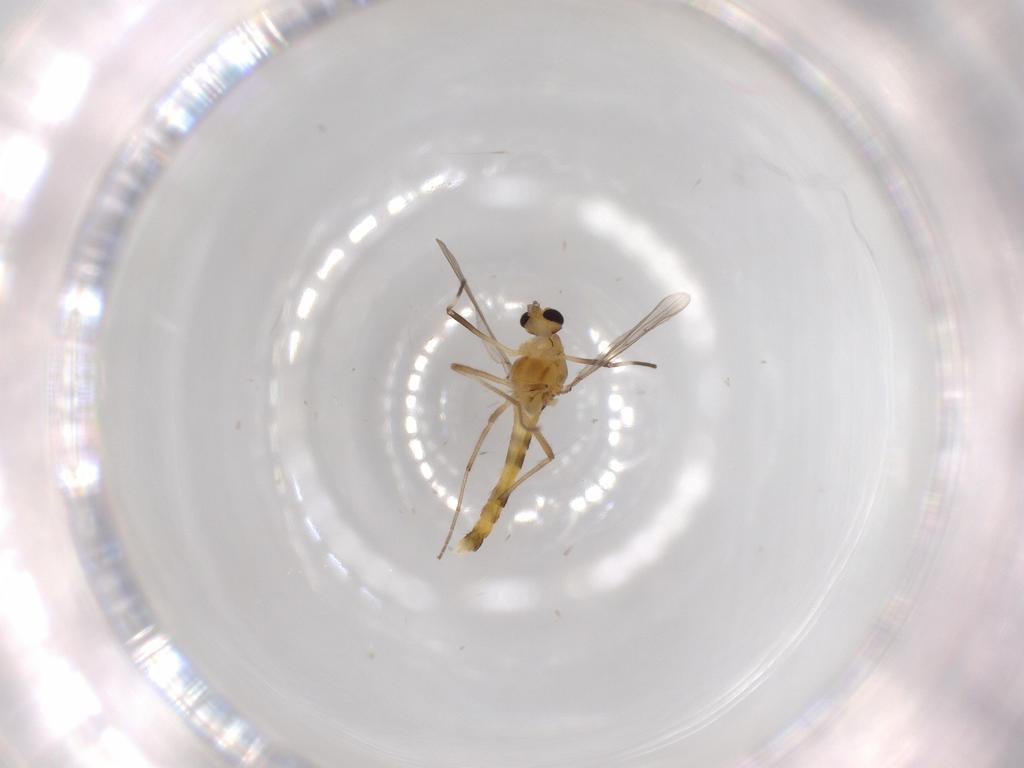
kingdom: Animalia
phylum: Arthropoda
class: Insecta
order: Diptera
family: Chironomidae
